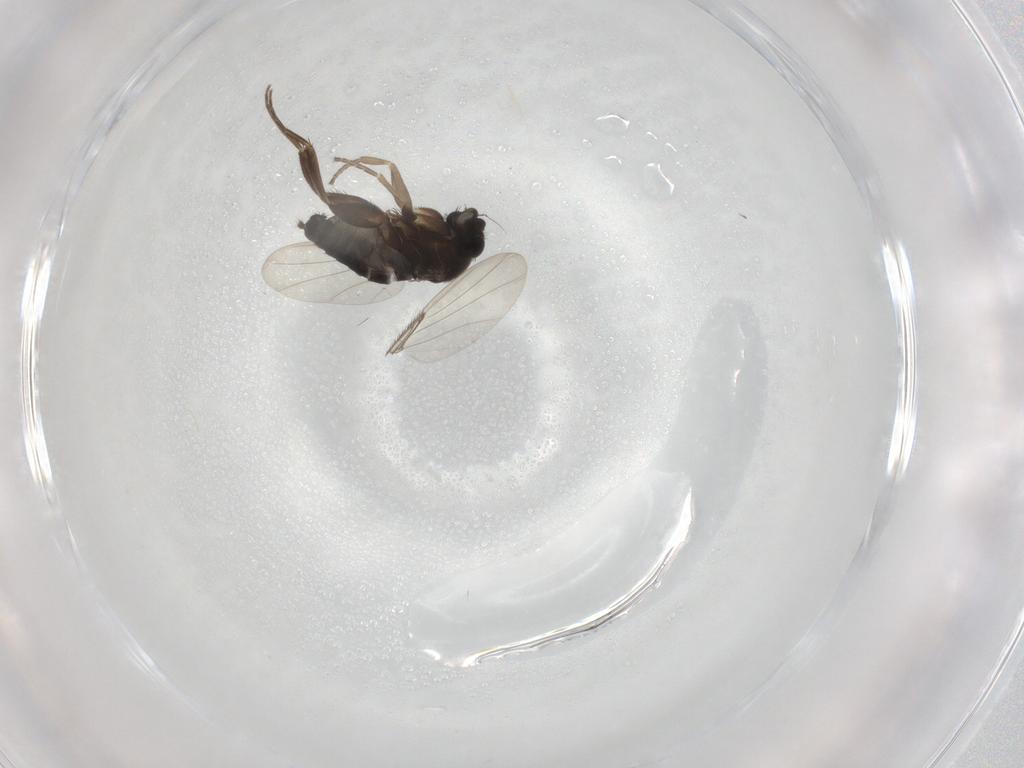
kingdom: Animalia
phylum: Arthropoda
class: Insecta
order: Diptera
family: Phoridae
